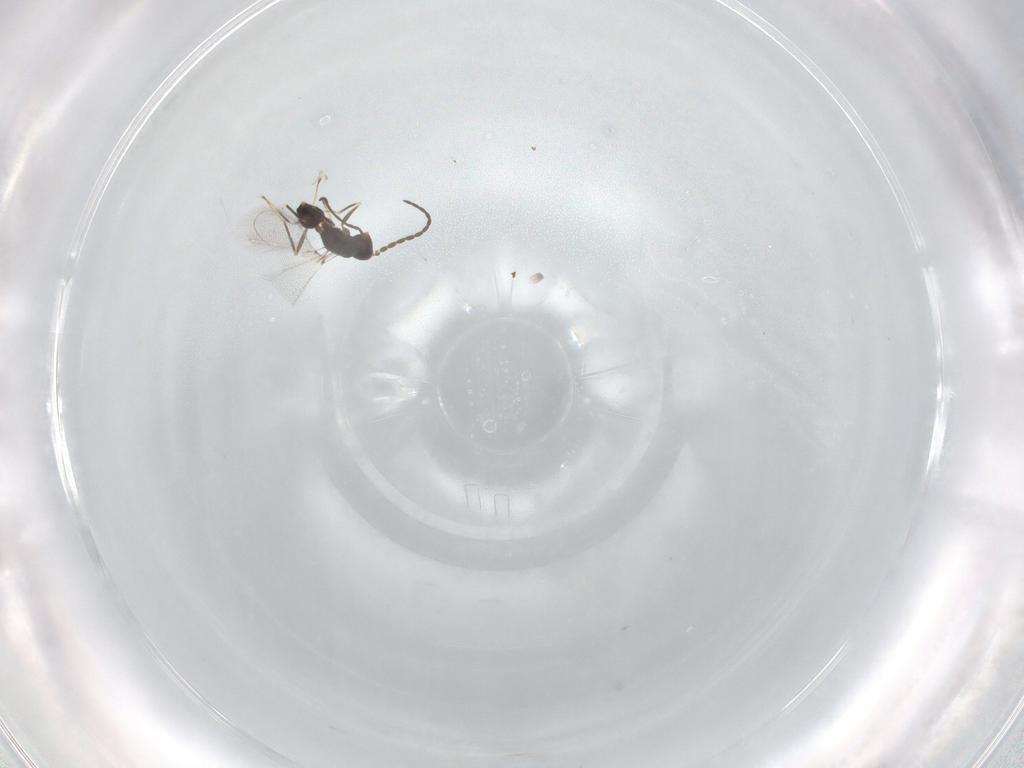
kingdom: Animalia
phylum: Arthropoda
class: Insecta
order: Hymenoptera
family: Mymaridae
